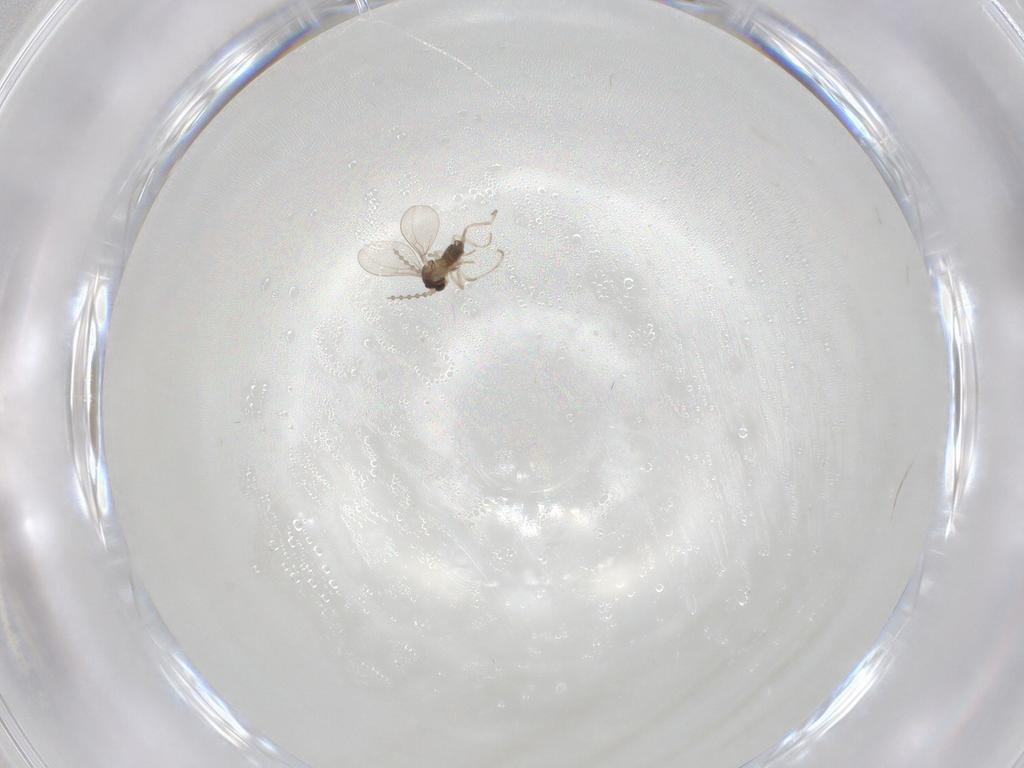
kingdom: Animalia
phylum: Arthropoda
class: Insecta
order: Diptera
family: Cecidomyiidae
